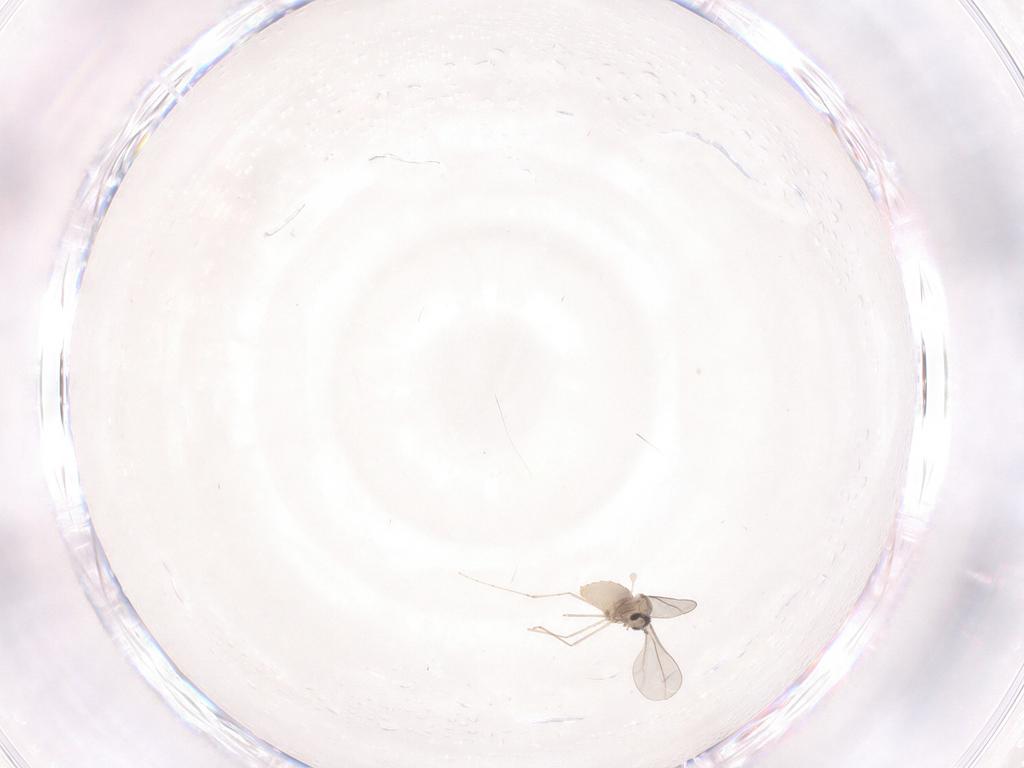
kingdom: Animalia
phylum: Arthropoda
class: Insecta
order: Diptera
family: Cecidomyiidae
